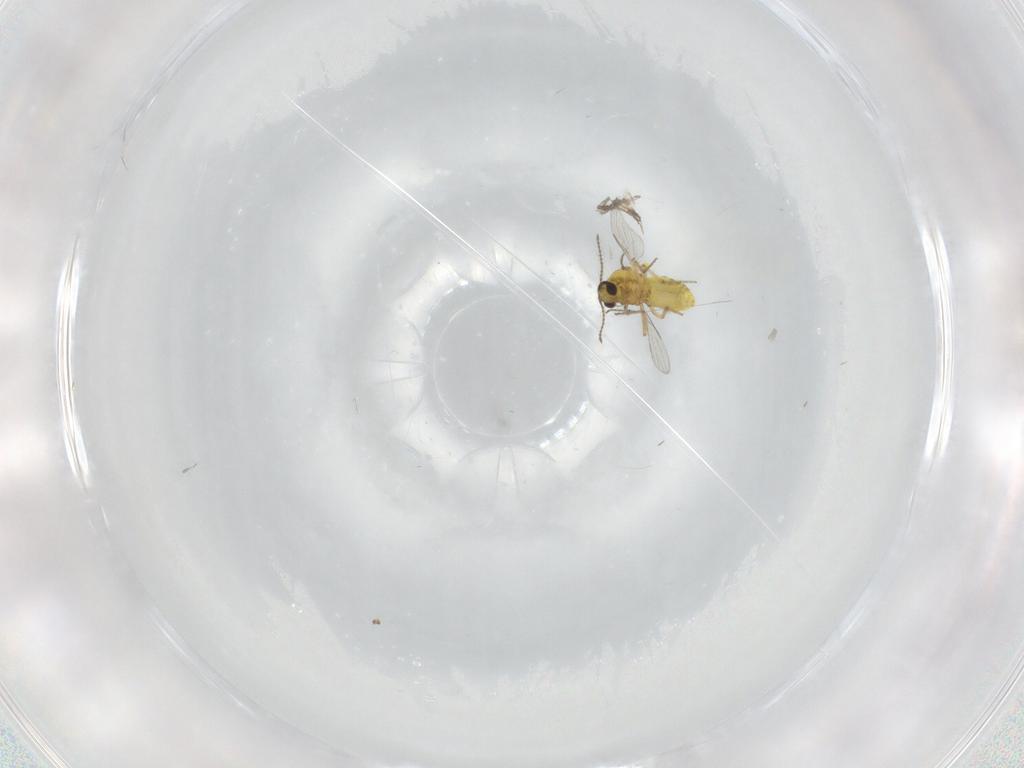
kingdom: Animalia
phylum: Arthropoda
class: Insecta
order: Diptera
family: Ceratopogonidae
